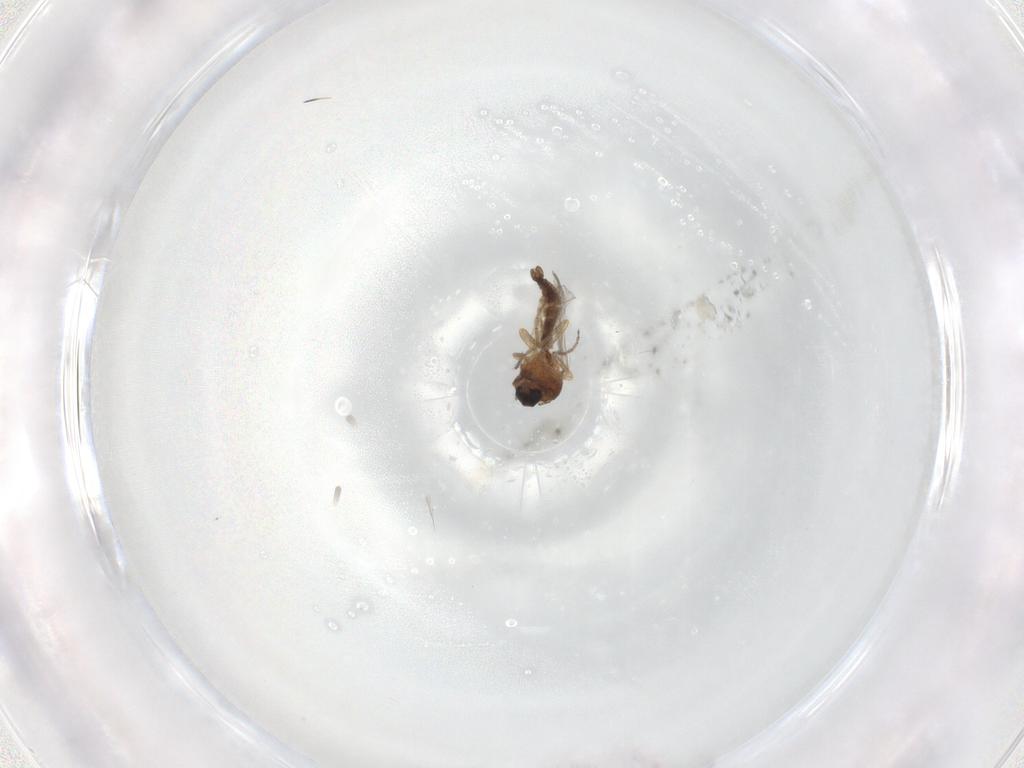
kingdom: Animalia
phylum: Arthropoda
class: Insecta
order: Diptera
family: Ceratopogonidae
